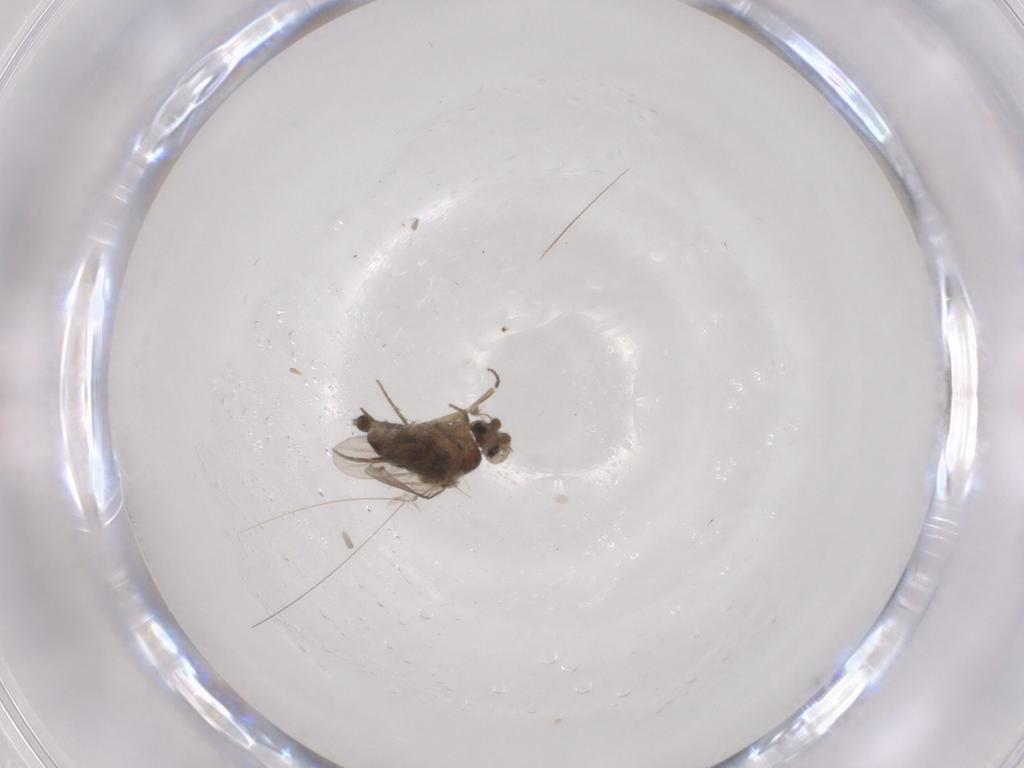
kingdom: Animalia
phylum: Arthropoda
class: Insecta
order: Diptera
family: Phoridae
